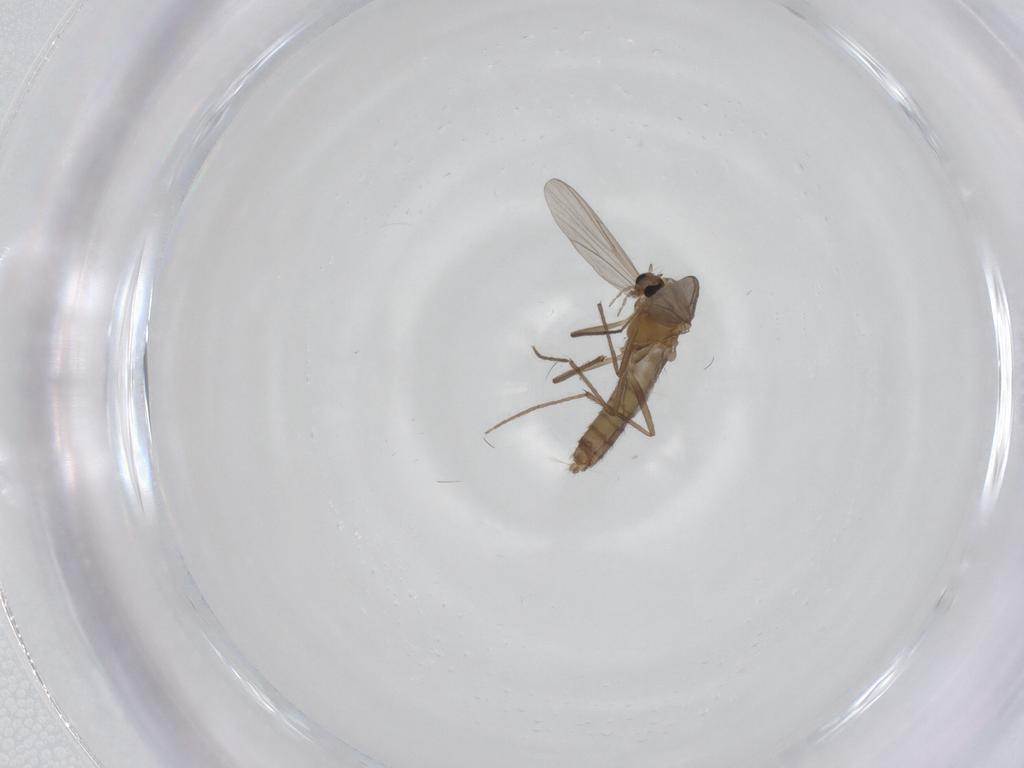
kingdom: Animalia
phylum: Arthropoda
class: Insecta
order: Diptera
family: Chironomidae
